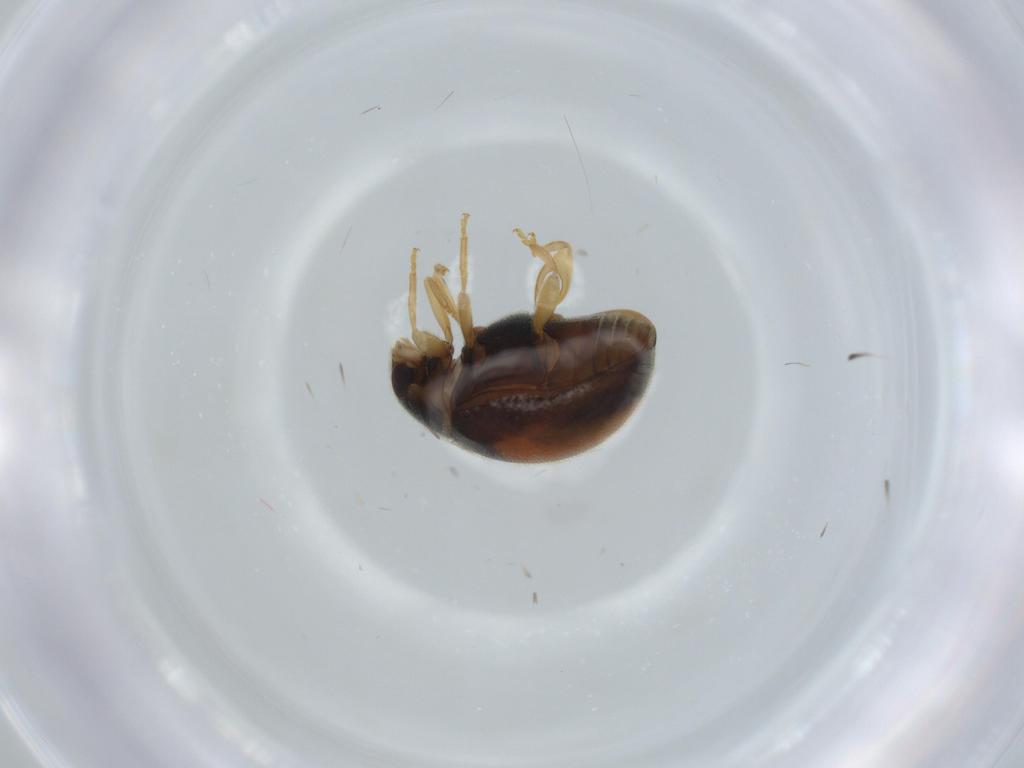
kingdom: Animalia
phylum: Arthropoda
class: Insecta
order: Coleoptera
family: Coccinellidae
